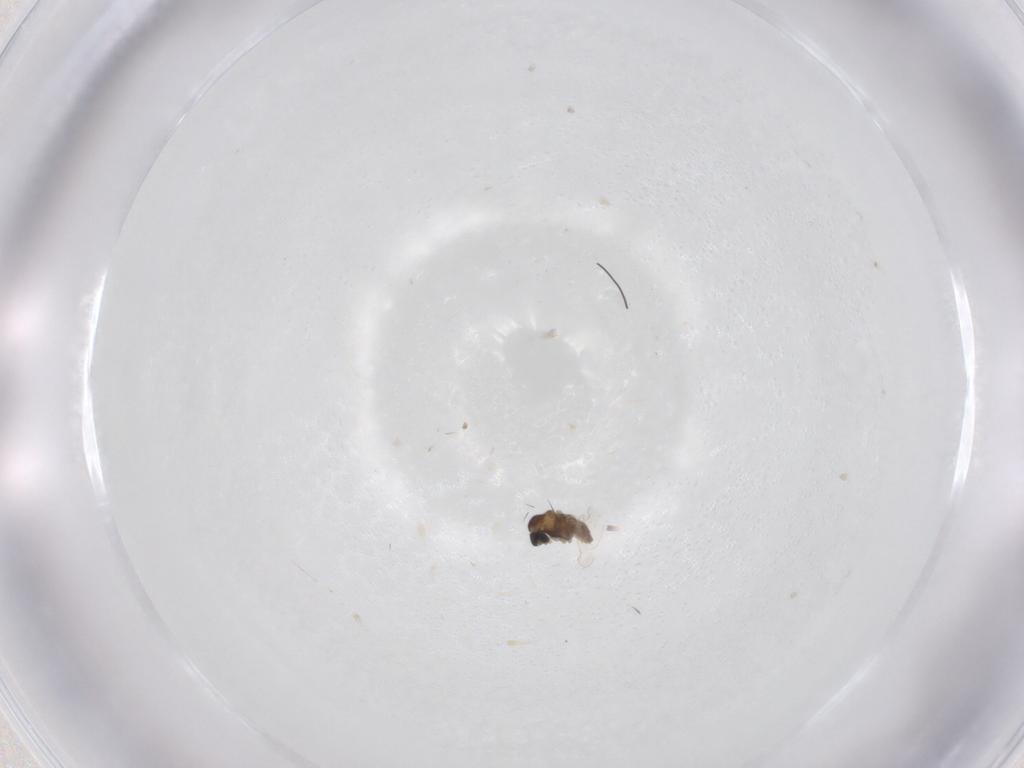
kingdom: Animalia
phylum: Arthropoda
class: Insecta
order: Diptera
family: Cecidomyiidae
